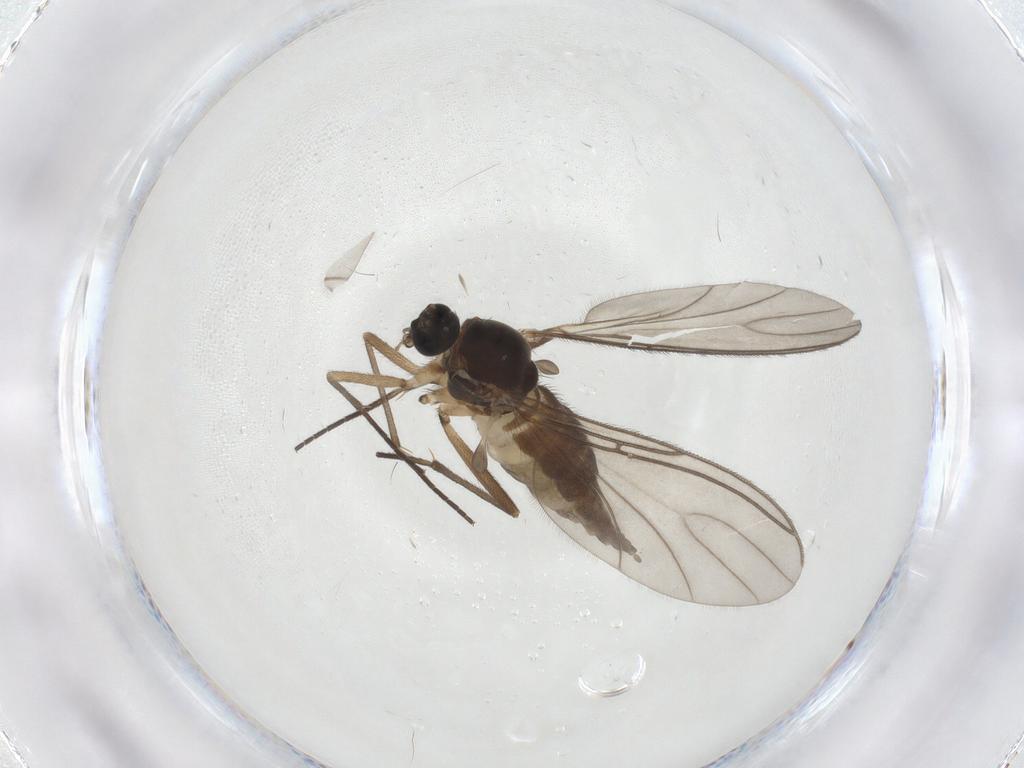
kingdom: Animalia
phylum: Arthropoda
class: Insecta
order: Diptera
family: Sciaridae
